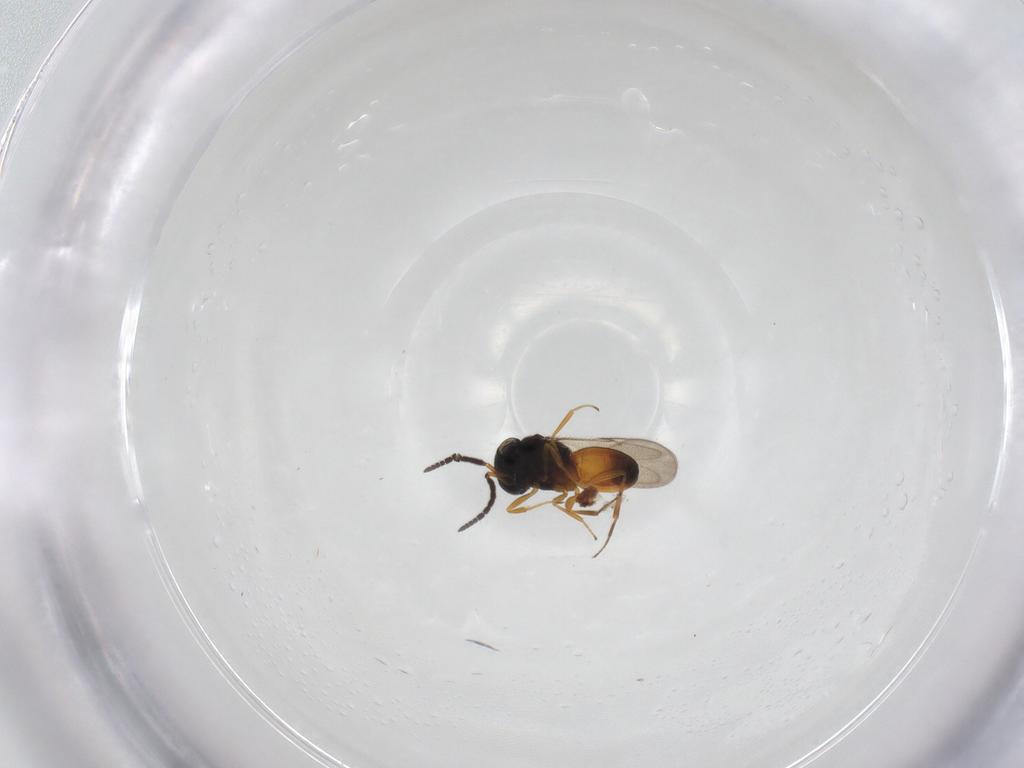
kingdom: Animalia
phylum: Arthropoda
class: Insecta
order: Hymenoptera
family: Scelionidae
